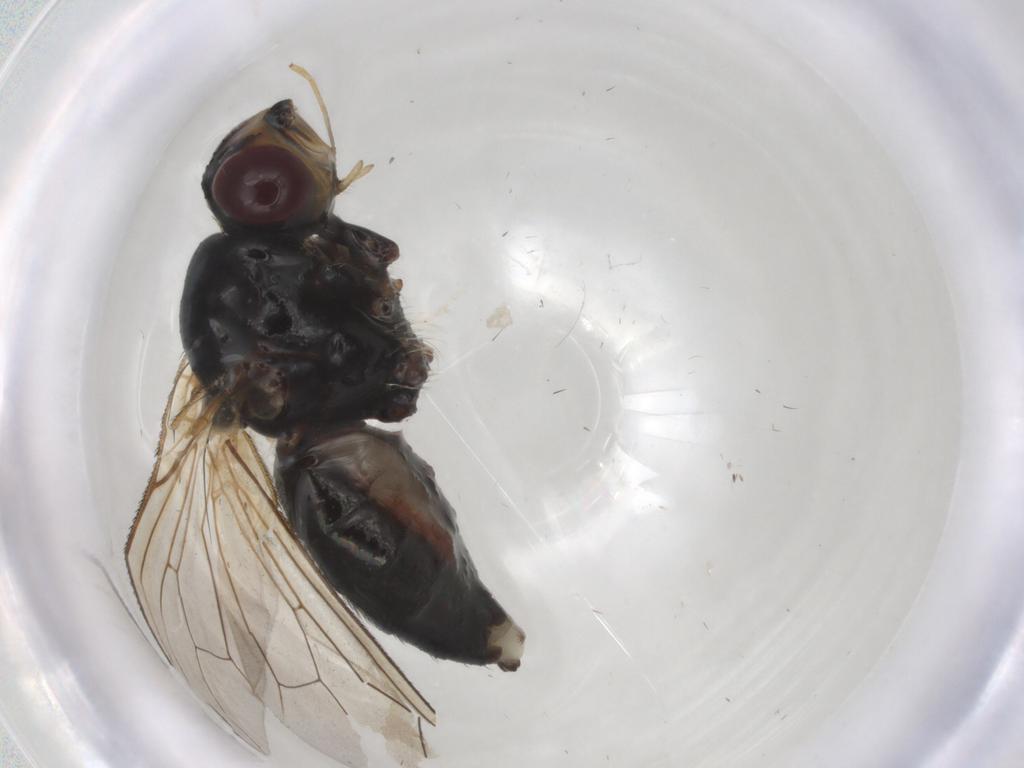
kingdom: Animalia
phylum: Arthropoda
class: Insecta
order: Diptera
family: Scathophagidae
